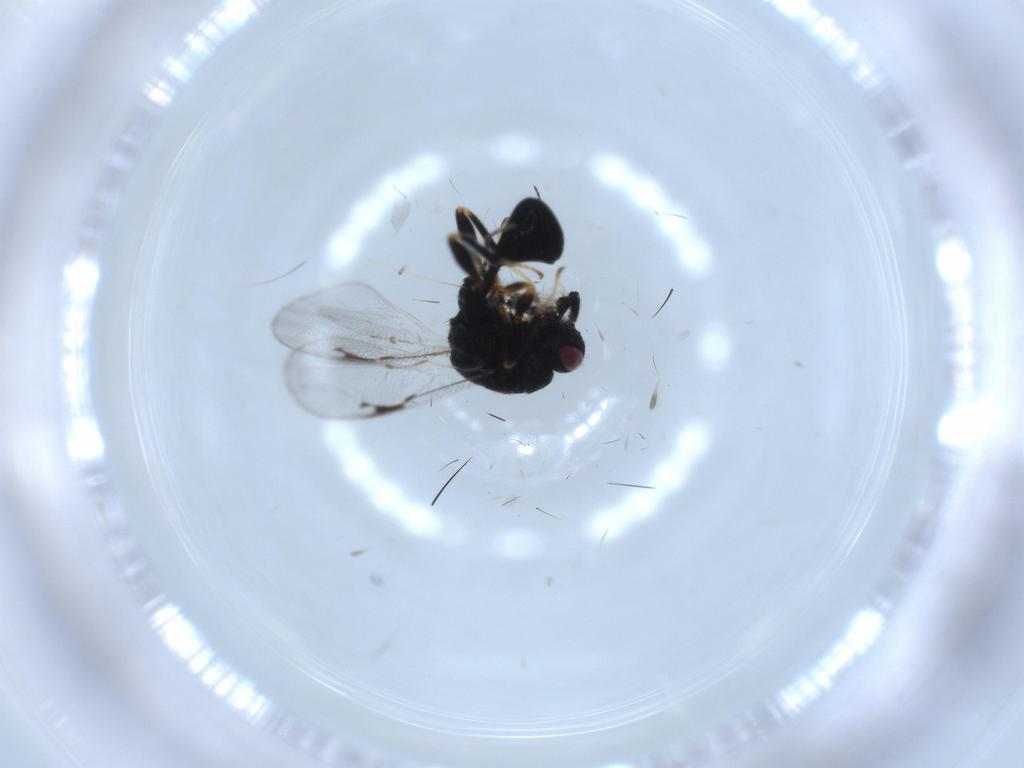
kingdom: Animalia
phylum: Arthropoda
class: Insecta
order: Hymenoptera
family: Eurytomidae
